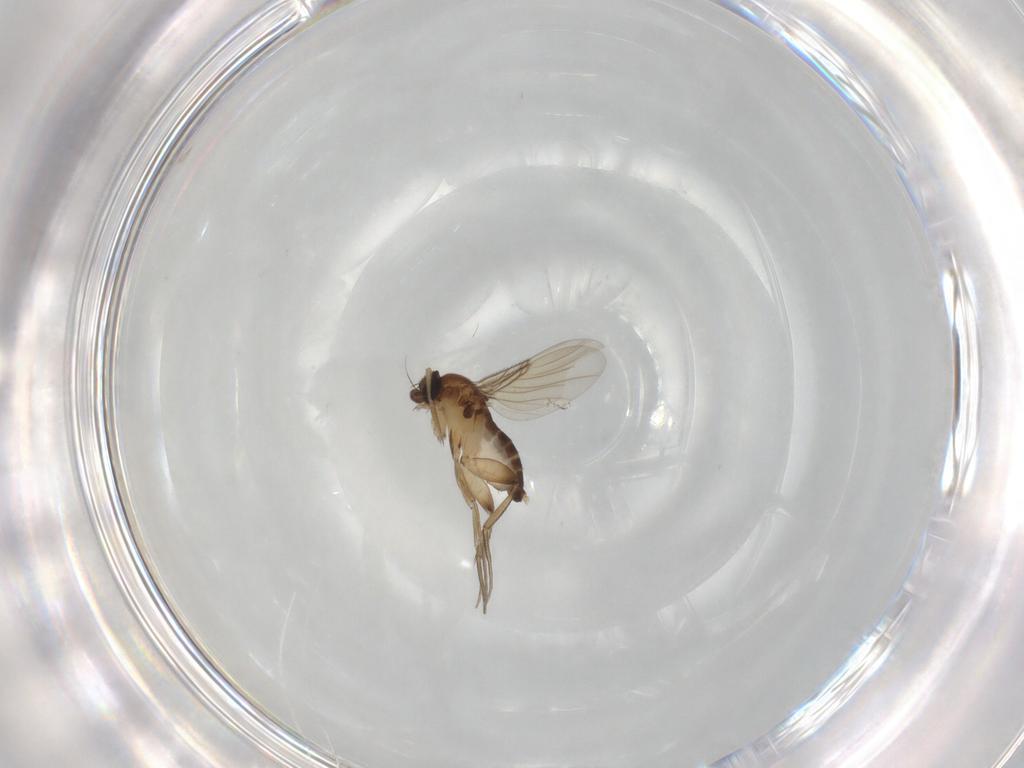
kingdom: Animalia
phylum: Arthropoda
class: Insecta
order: Diptera
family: Phoridae
